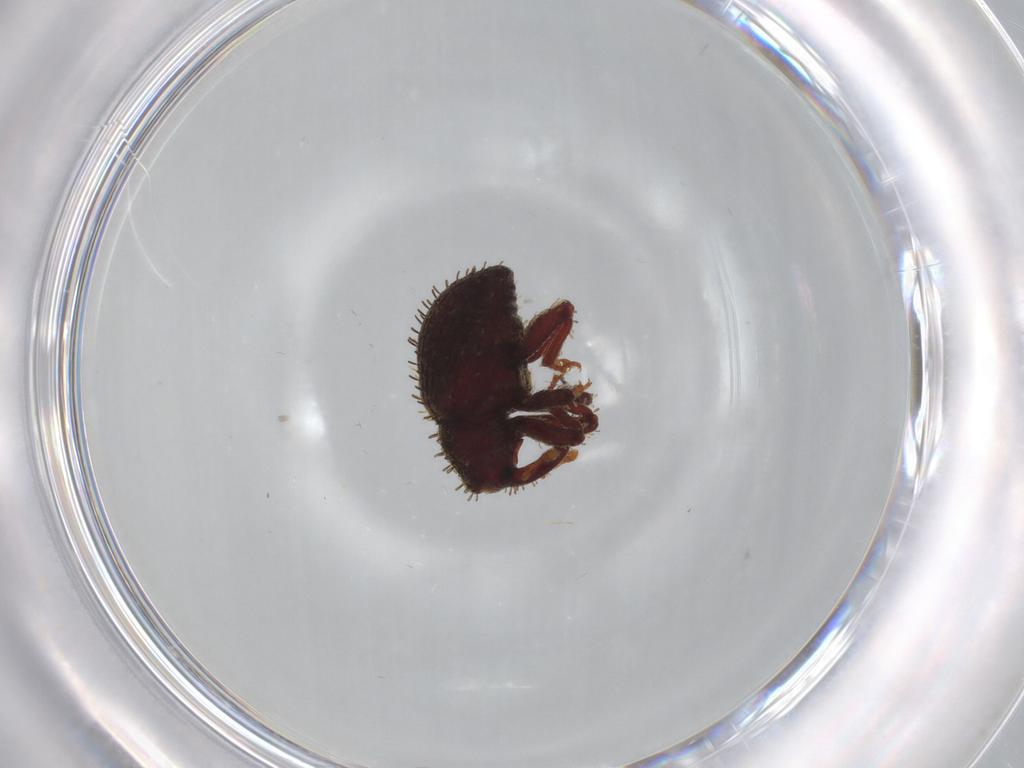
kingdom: Animalia
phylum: Arthropoda
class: Insecta
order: Coleoptera
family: Curculionidae
